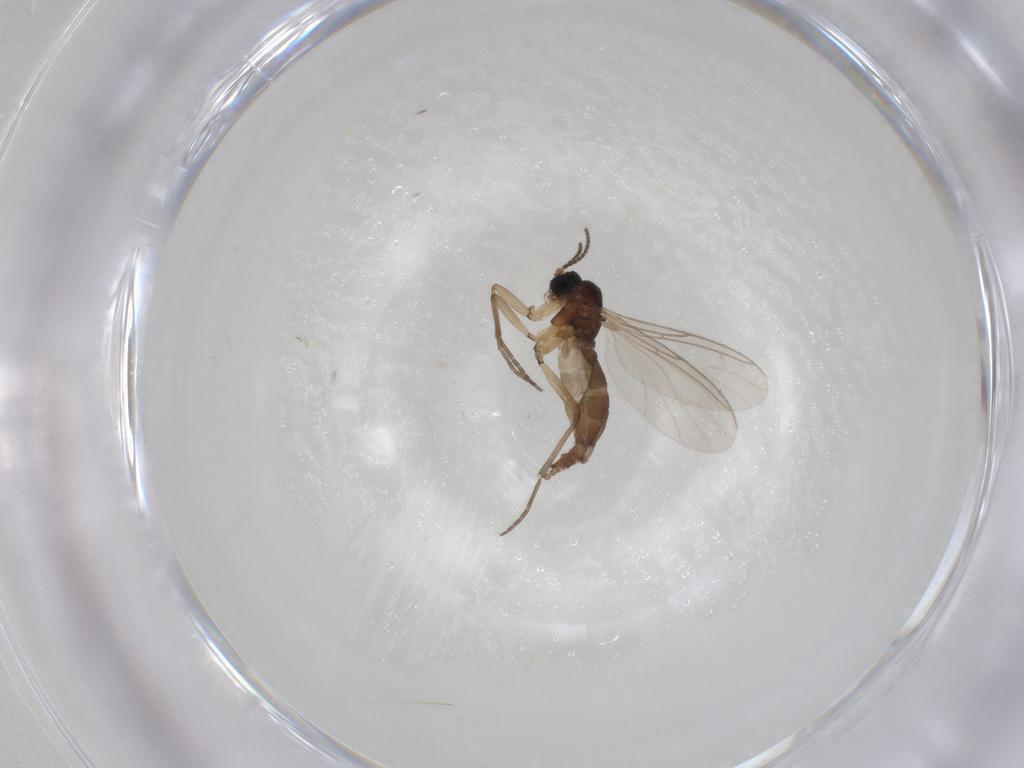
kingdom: Animalia
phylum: Arthropoda
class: Insecta
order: Diptera
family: Sciaridae
